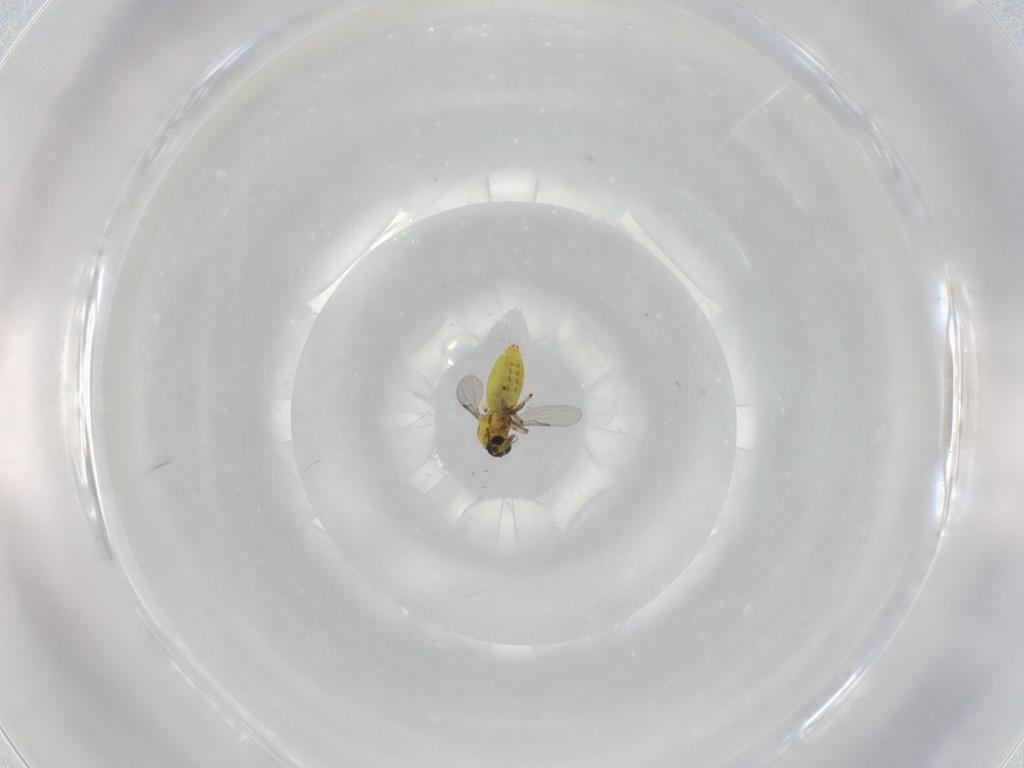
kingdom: Animalia
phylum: Arthropoda
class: Insecta
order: Diptera
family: Ceratopogonidae
